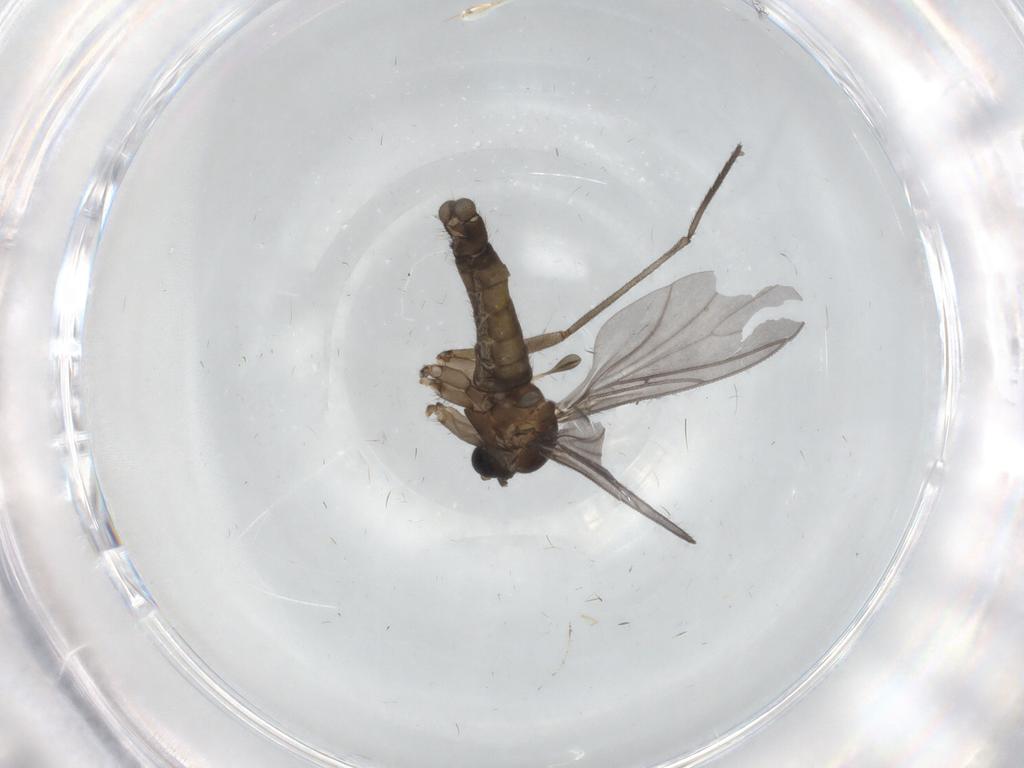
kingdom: Animalia
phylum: Arthropoda
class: Insecta
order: Diptera
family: Sciaridae
